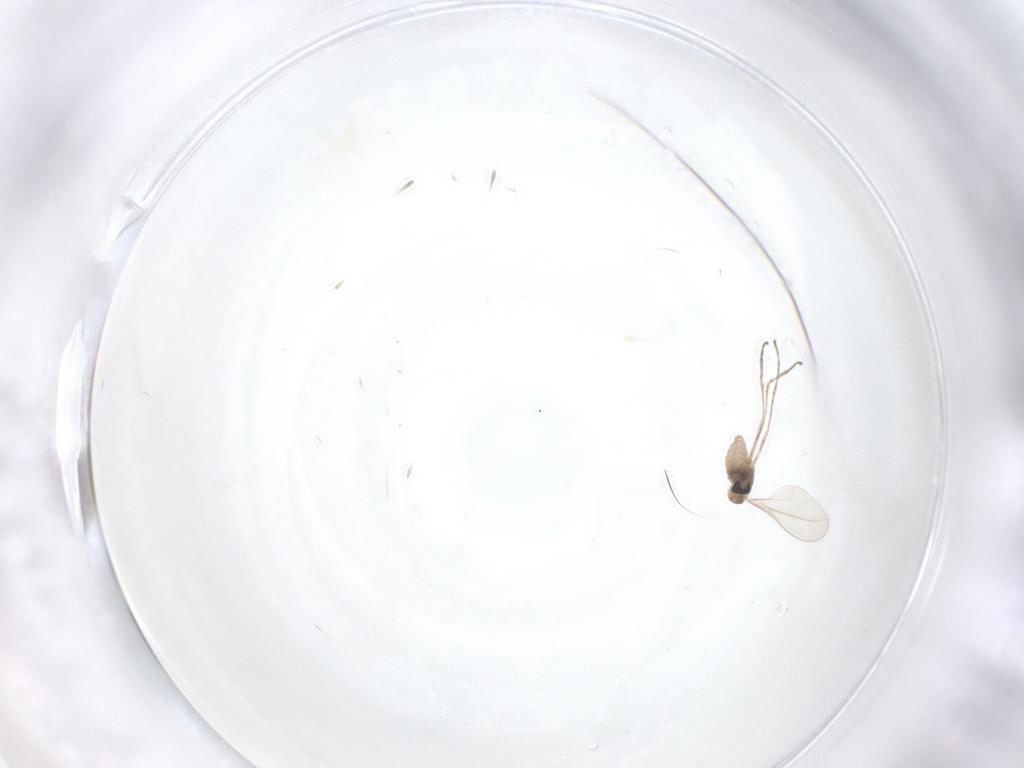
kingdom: Animalia
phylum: Arthropoda
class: Insecta
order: Diptera
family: Cecidomyiidae
